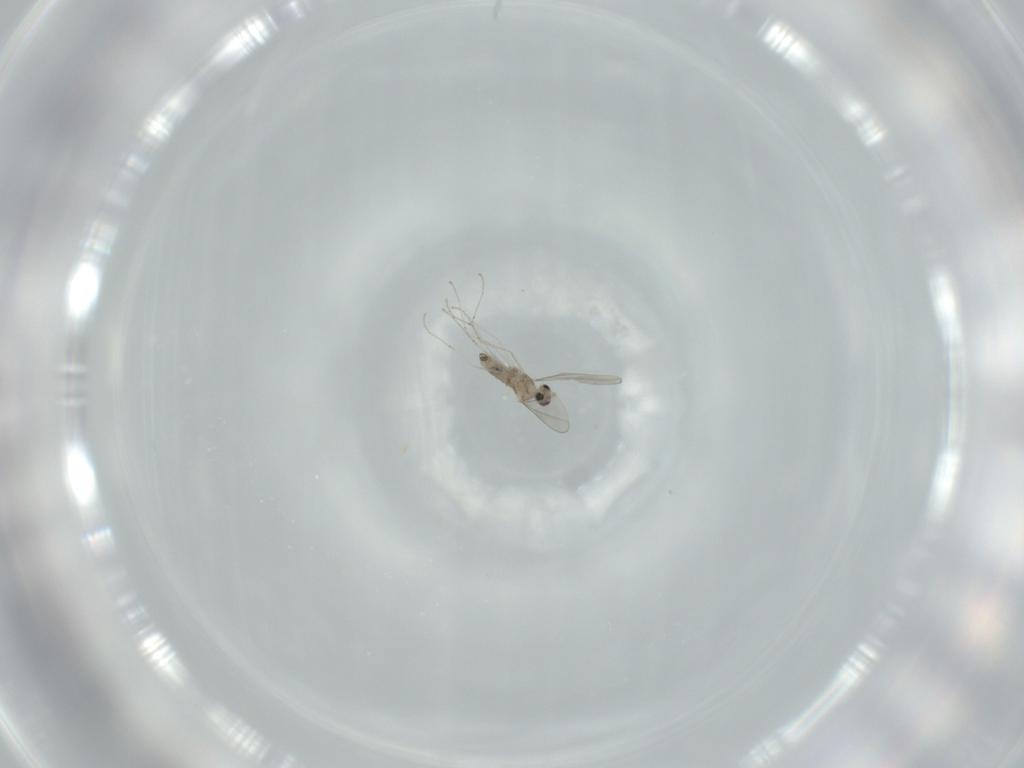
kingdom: Animalia
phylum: Arthropoda
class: Insecta
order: Diptera
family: Cecidomyiidae
